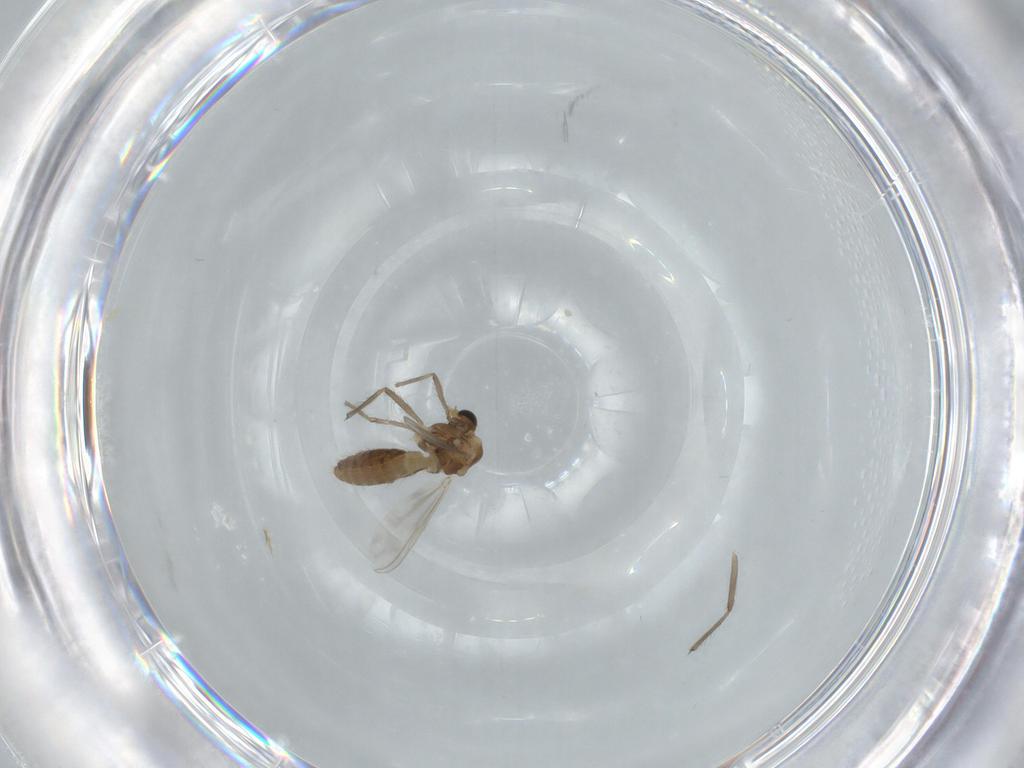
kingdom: Animalia
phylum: Arthropoda
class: Insecta
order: Diptera
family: Chironomidae
